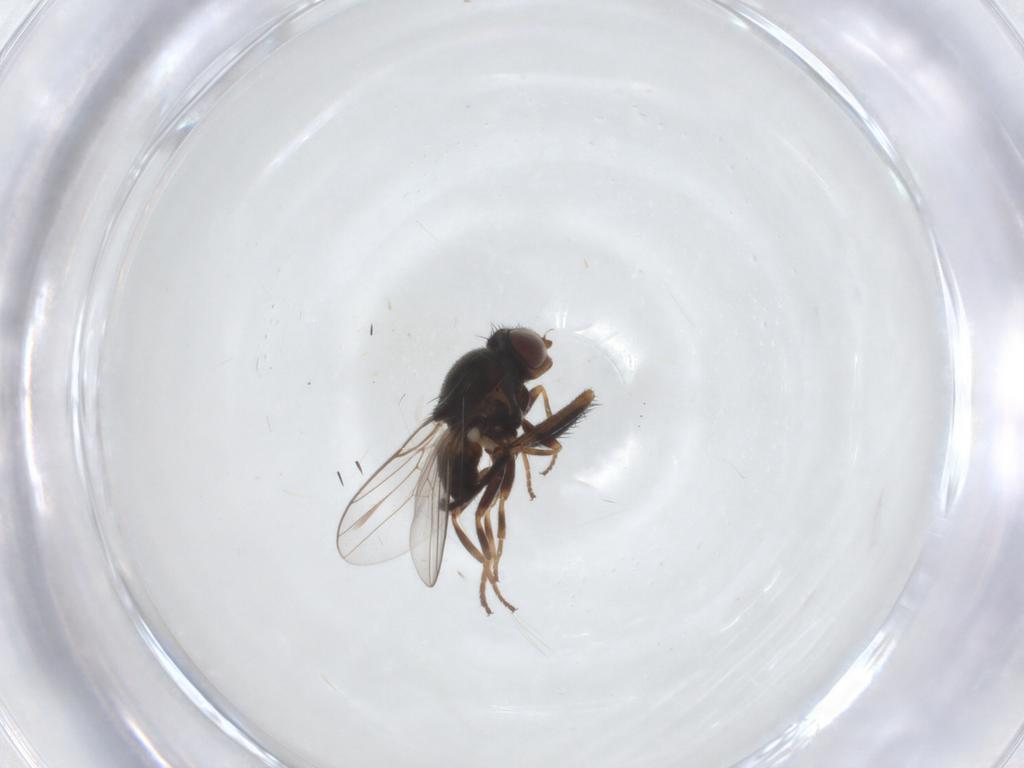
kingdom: Animalia
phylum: Arthropoda
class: Insecta
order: Diptera
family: Chloropidae
